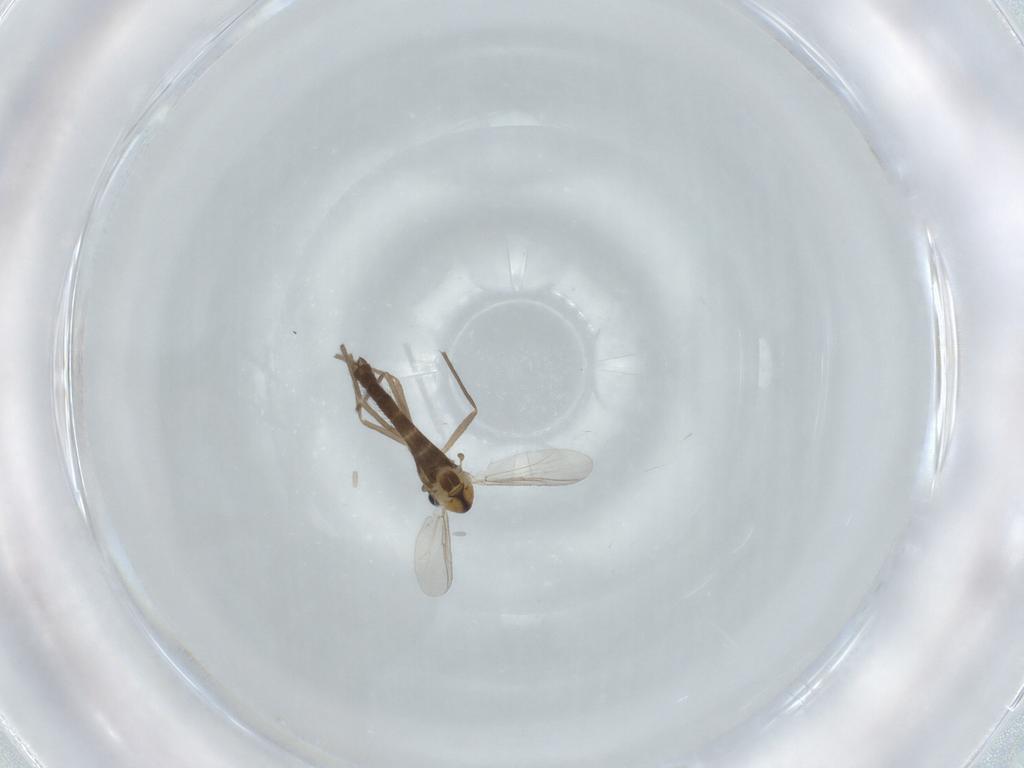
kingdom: Animalia
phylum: Arthropoda
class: Insecta
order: Diptera
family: Chironomidae
